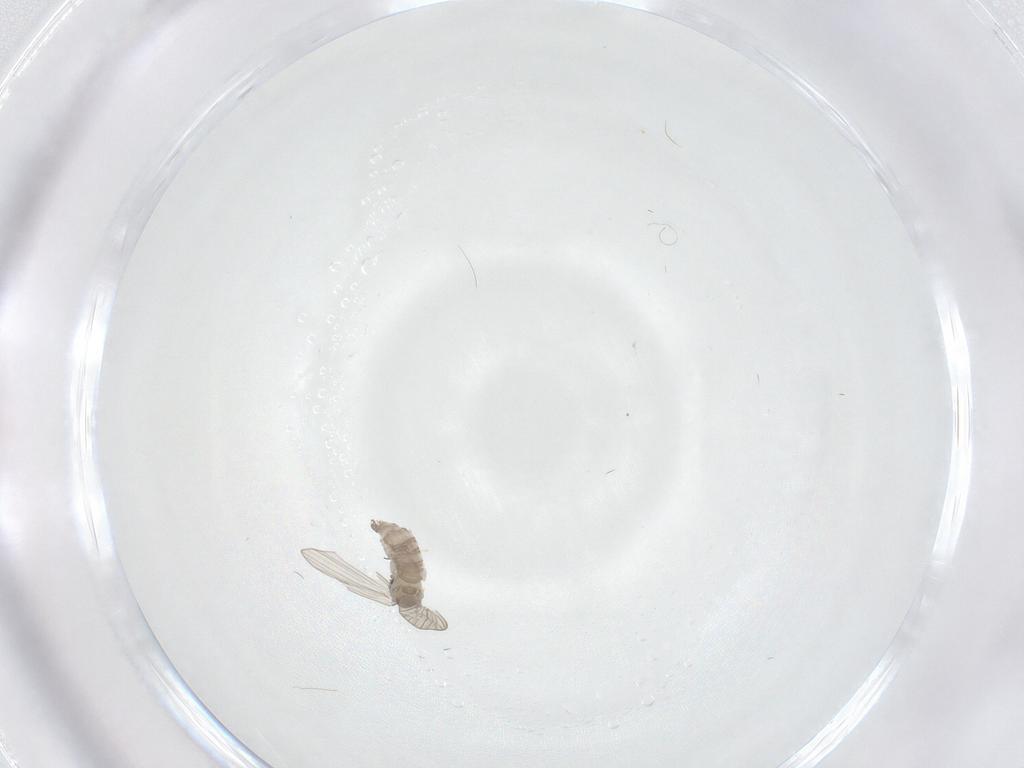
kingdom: Animalia
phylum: Arthropoda
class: Insecta
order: Diptera
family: Psychodidae
